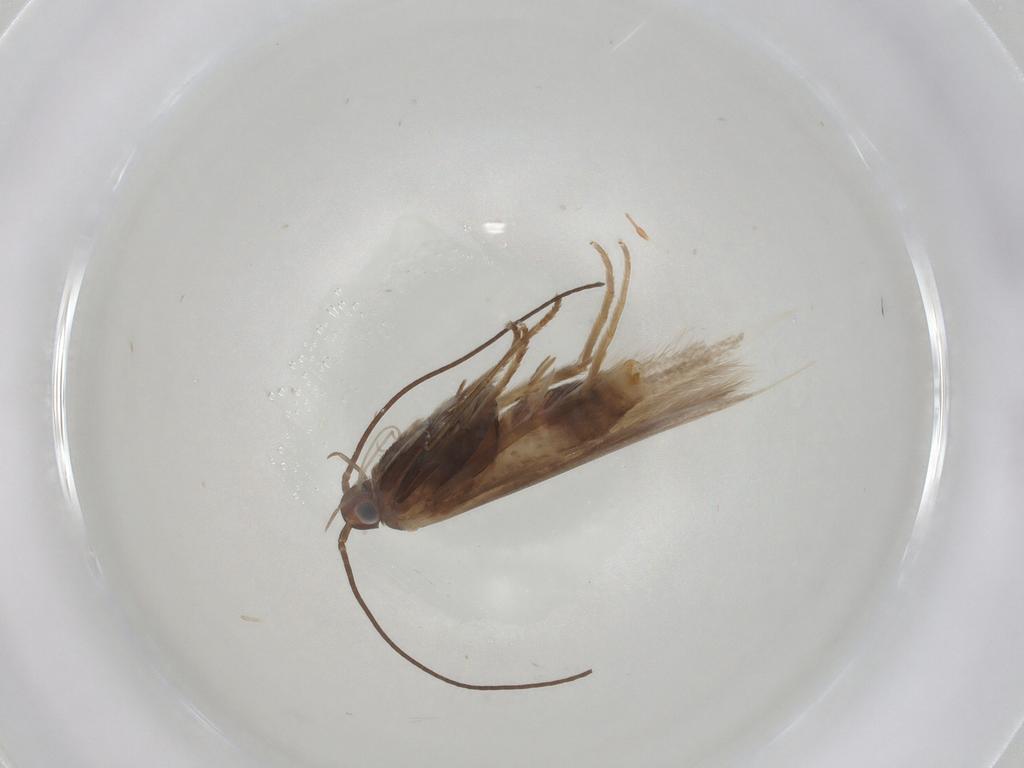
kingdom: Animalia
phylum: Arthropoda
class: Insecta
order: Lepidoptera
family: Coleophoridae
